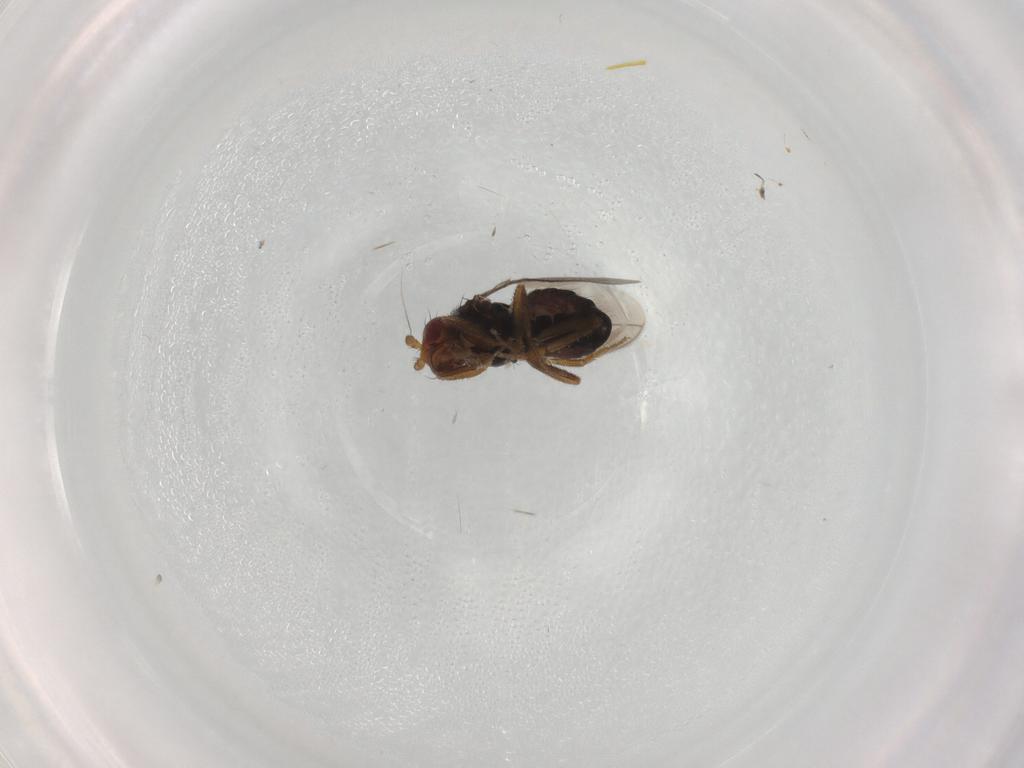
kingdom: Animalia
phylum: Arthropoda
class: Insecta
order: Diptera
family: Sphaeroceridae
